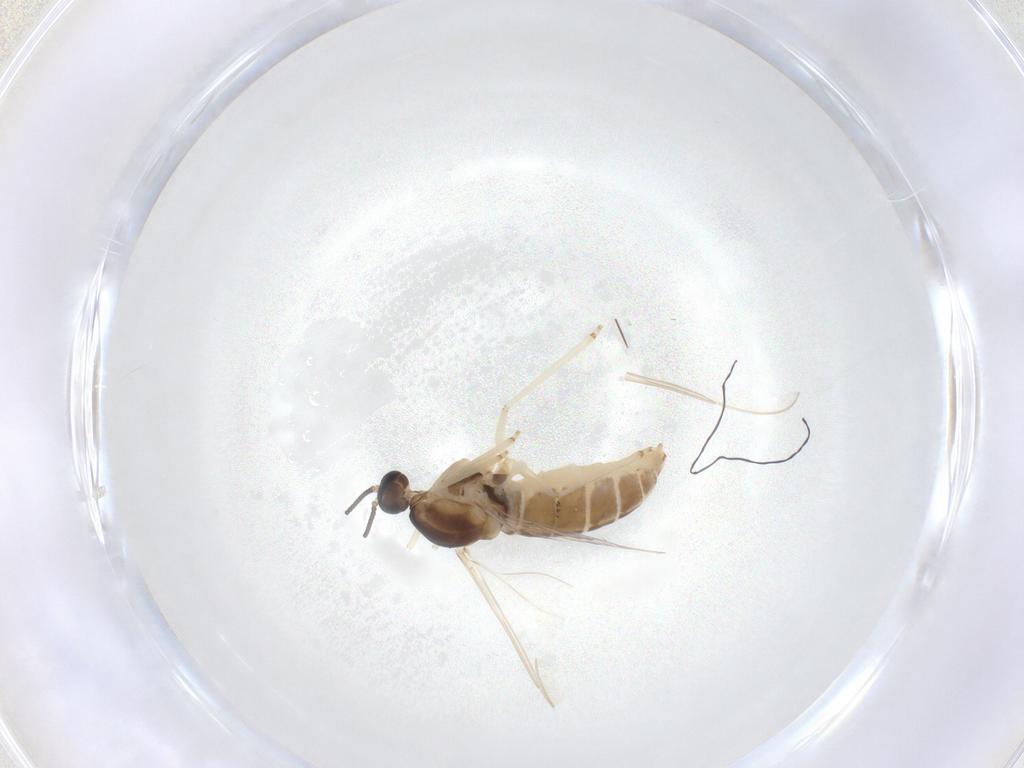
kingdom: Animalia
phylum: Arthropoda
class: Insecta
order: Diptera
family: Cecidomyiidae
